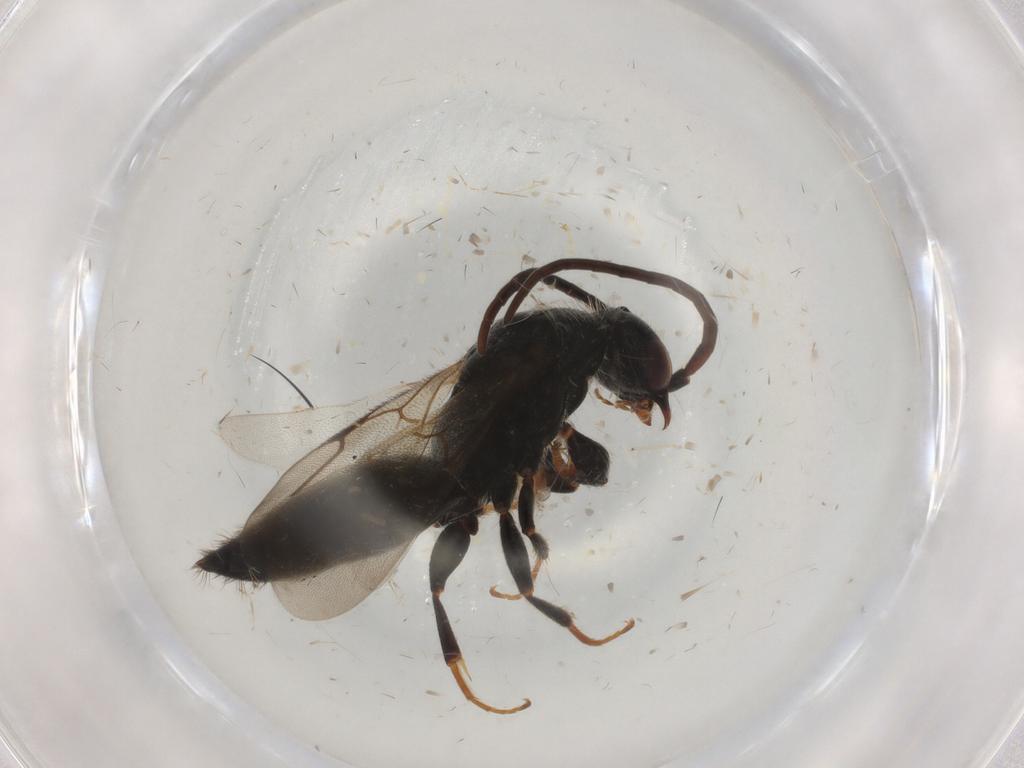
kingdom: Animalia
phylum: Arthropoda
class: Insecta
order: Hymenoptera
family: Bethylidae
